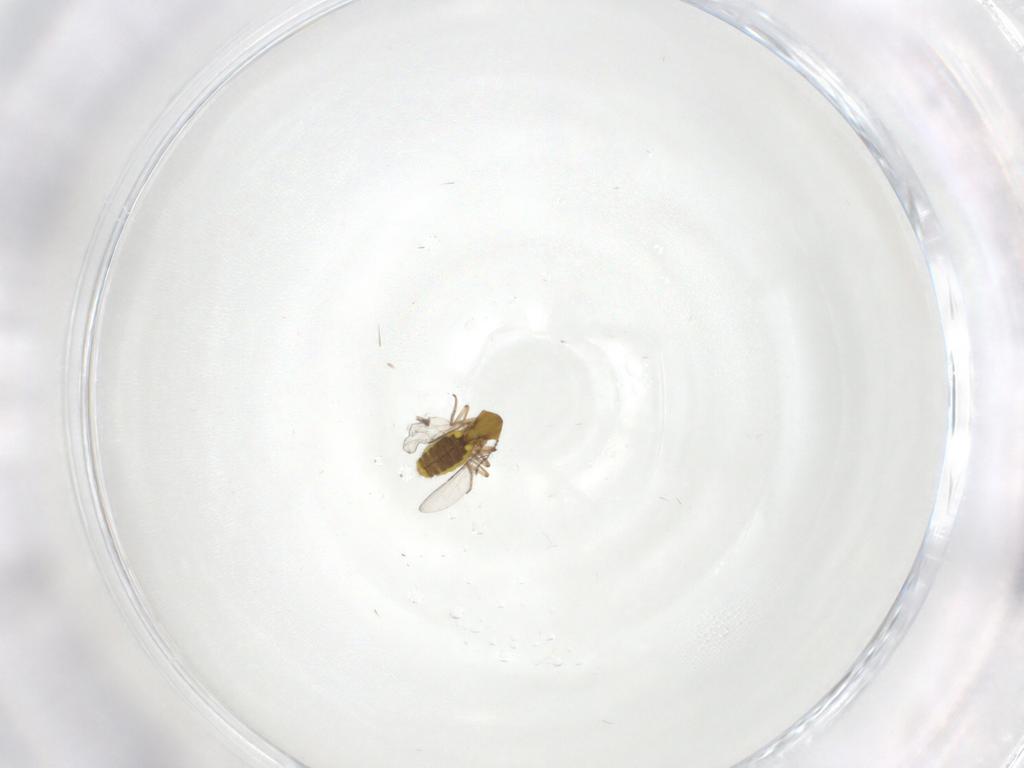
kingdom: Animalia
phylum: Arthropoda
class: Insecta
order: Diptera
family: Ceratopogonidae
